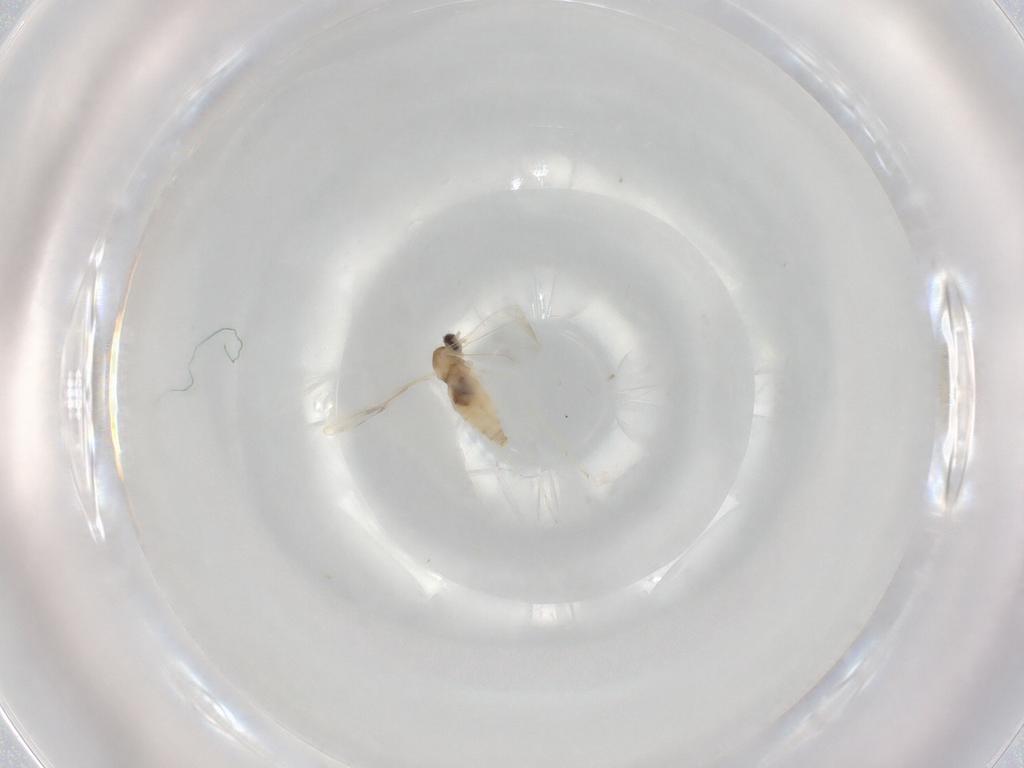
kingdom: Animalia
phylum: Arthropoda
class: Insecta
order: Diptera
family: Cecidomyiidae
